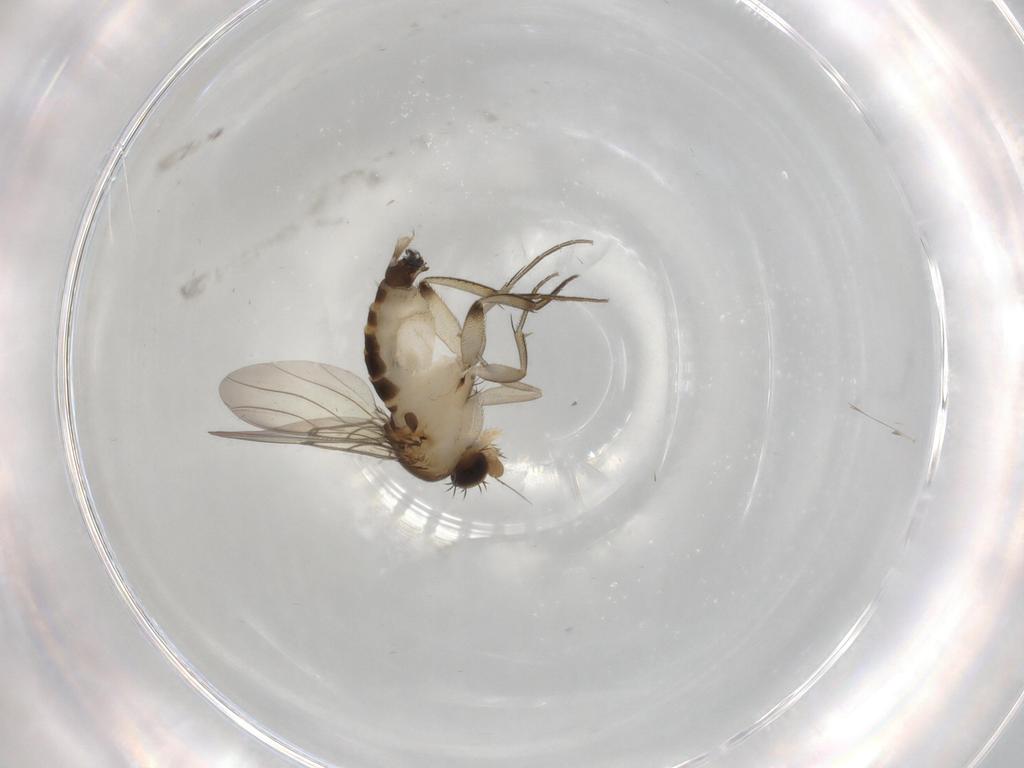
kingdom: Animalia
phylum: Arthropoda
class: Insecta
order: Diptera
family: Phoridae
